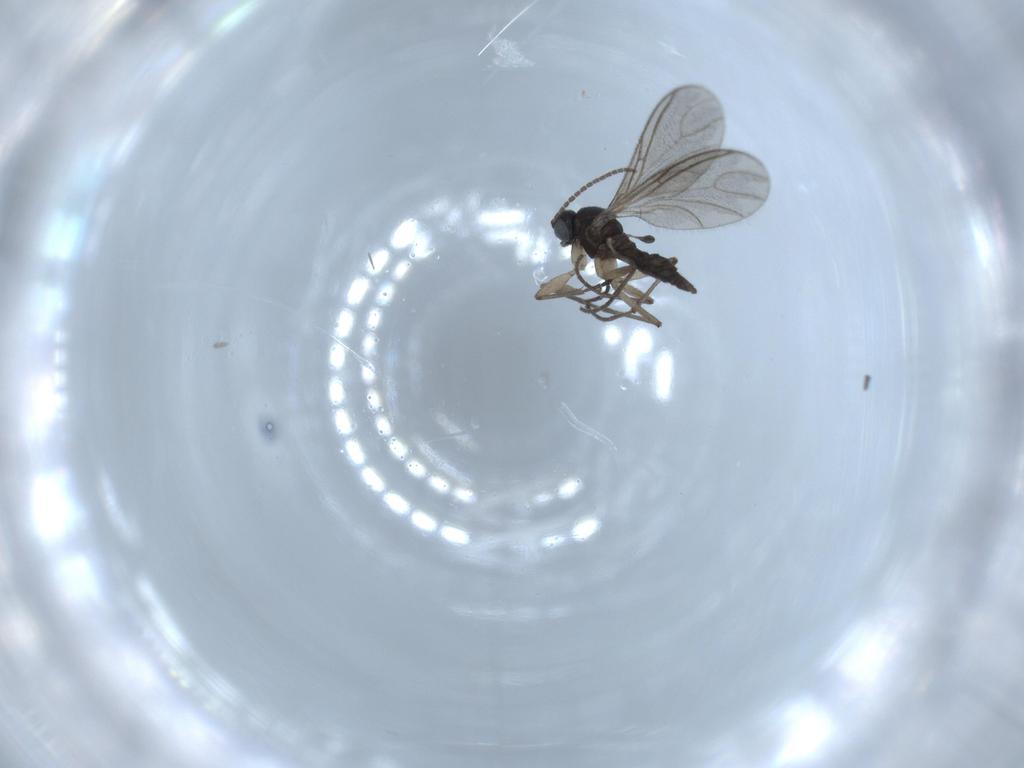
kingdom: Animalia
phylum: Arthropoda
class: Insecta
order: Diptera
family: Sciaridae
